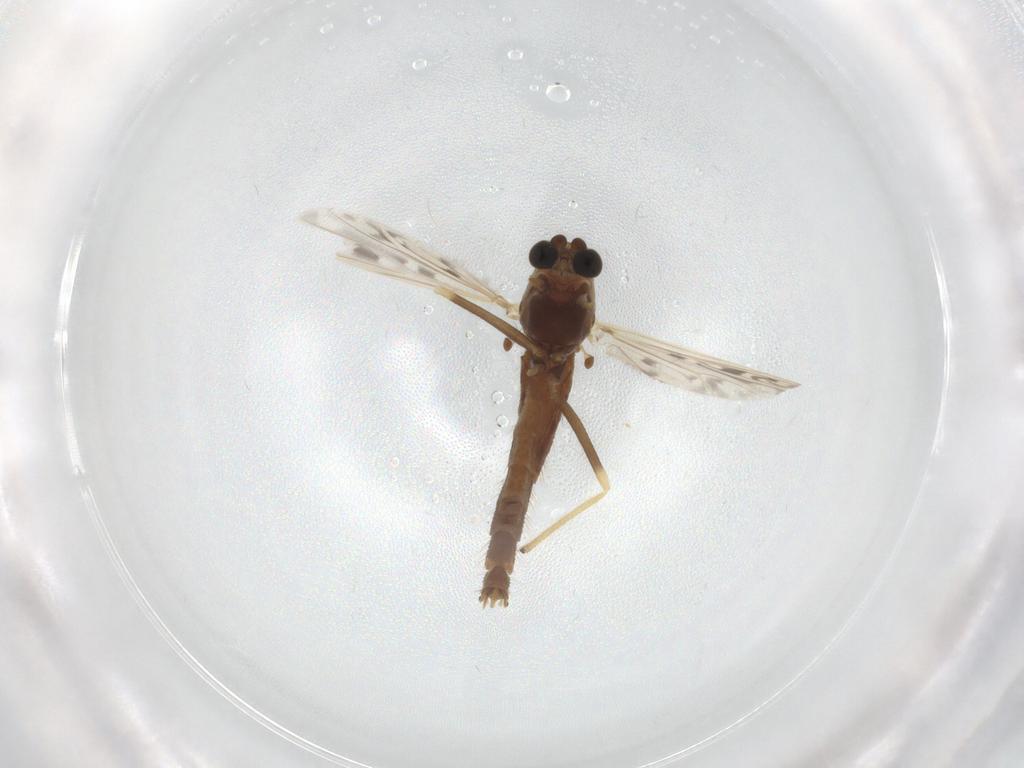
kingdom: Animalia
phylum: Arthropoda
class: Insecta
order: Diptera
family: Chironomidae
